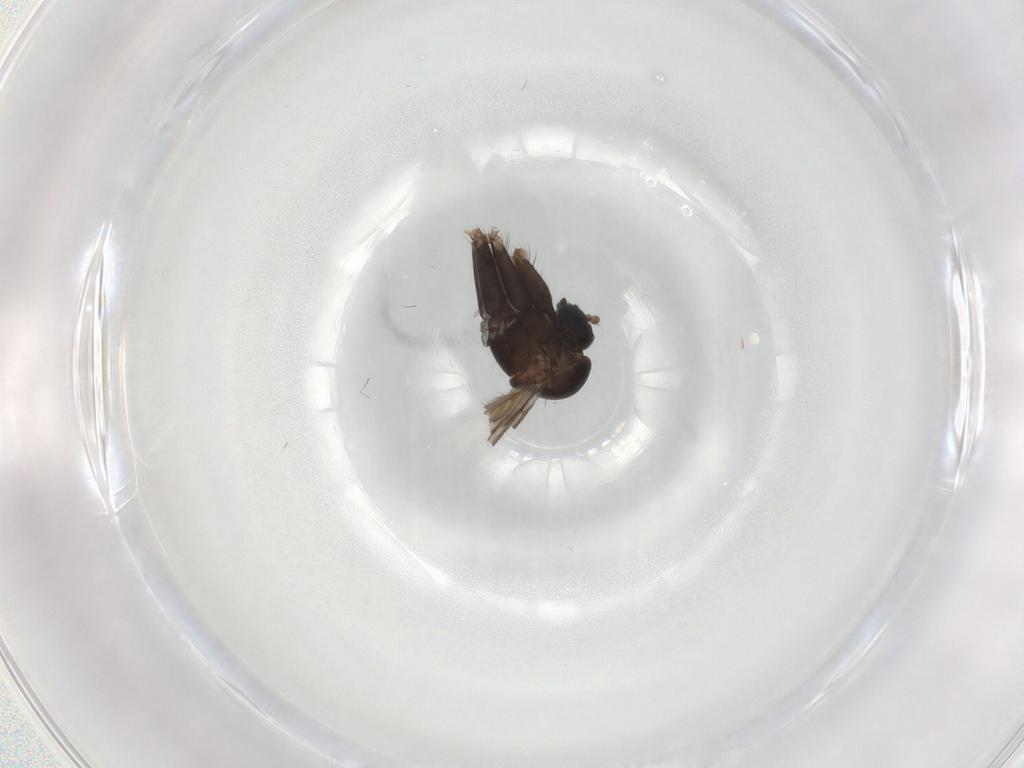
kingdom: Animalia
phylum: Arthropoda
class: Insecta
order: Diptera
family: Ditomyiidae
